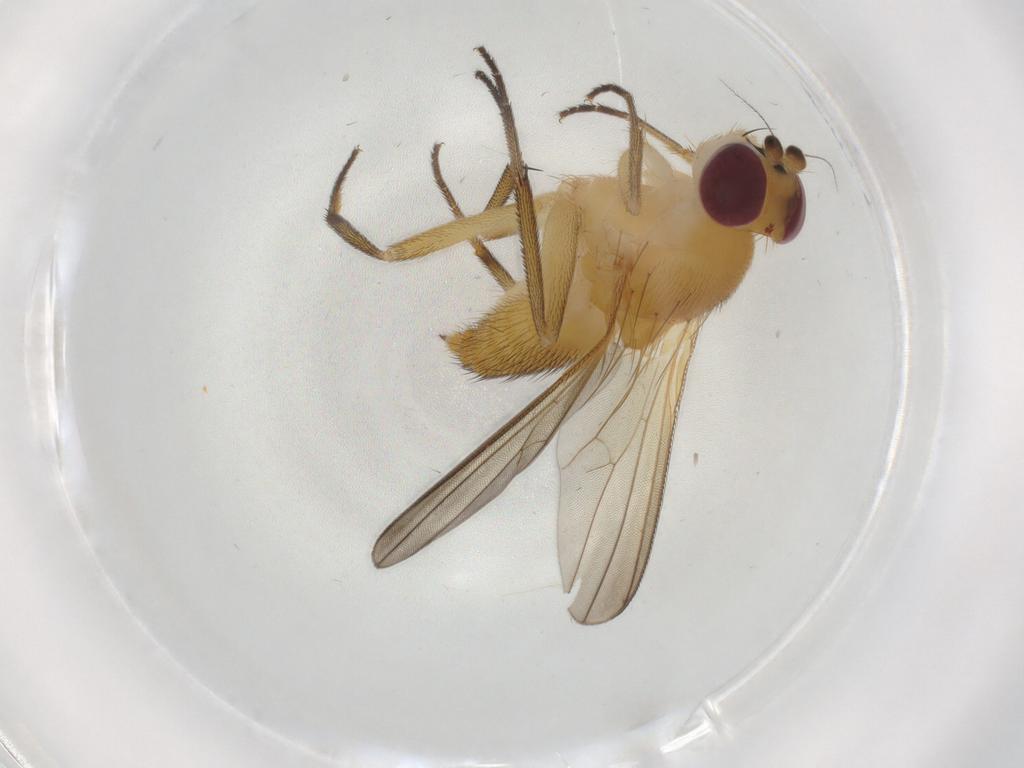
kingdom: Animalia
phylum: Arthropoda
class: Insecta
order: Diptera
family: Clusiidae
